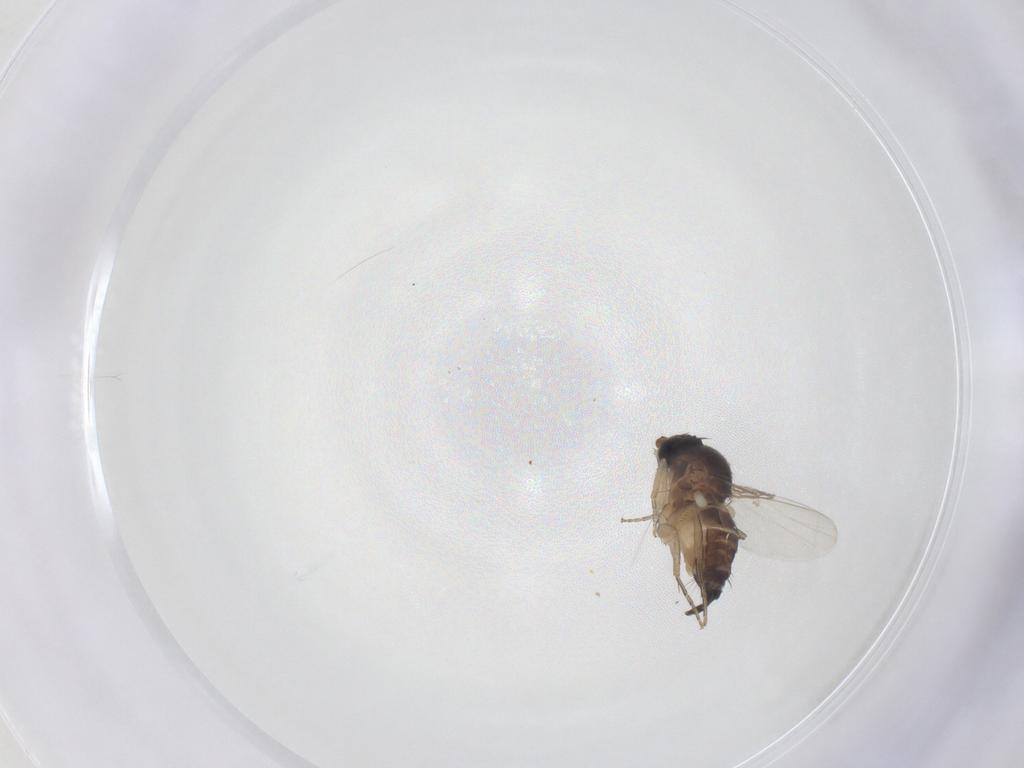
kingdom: Animalia
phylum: Arthropoda
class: Insecta
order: Diptera
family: Phoridae
